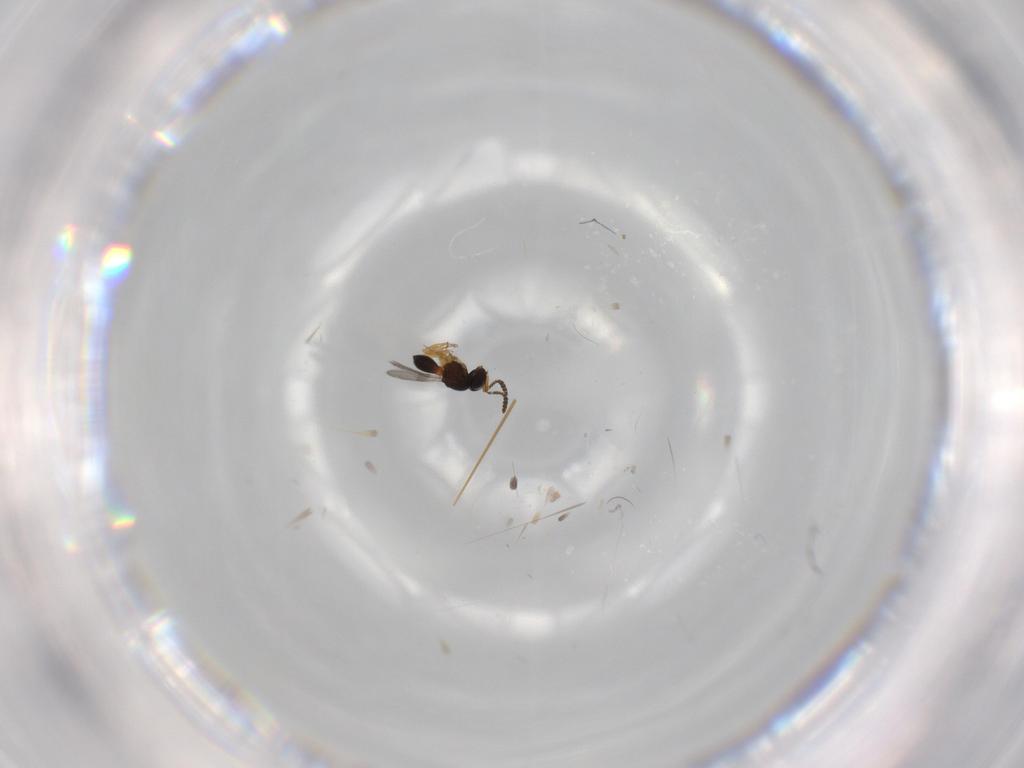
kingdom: Animalia
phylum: Arthropoda
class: Insecta
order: Hymenoptera
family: Scelionidae
